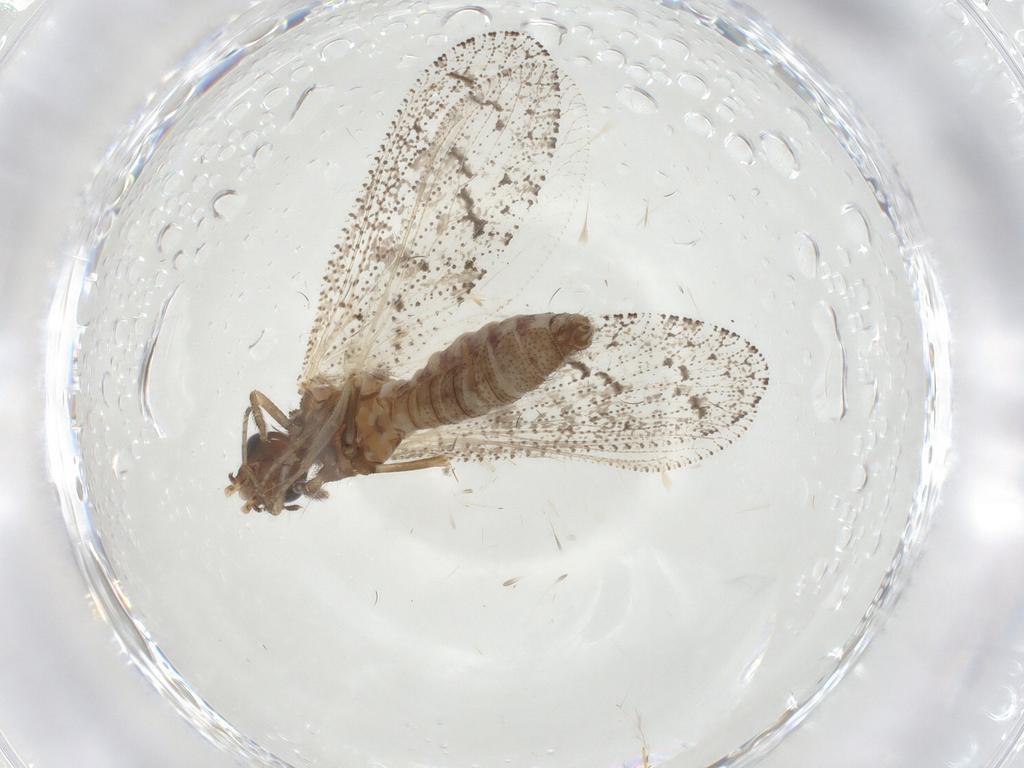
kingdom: Animalia
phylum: Arthropoda
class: Insecta
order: Neuroptera
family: Hemerobiidae
